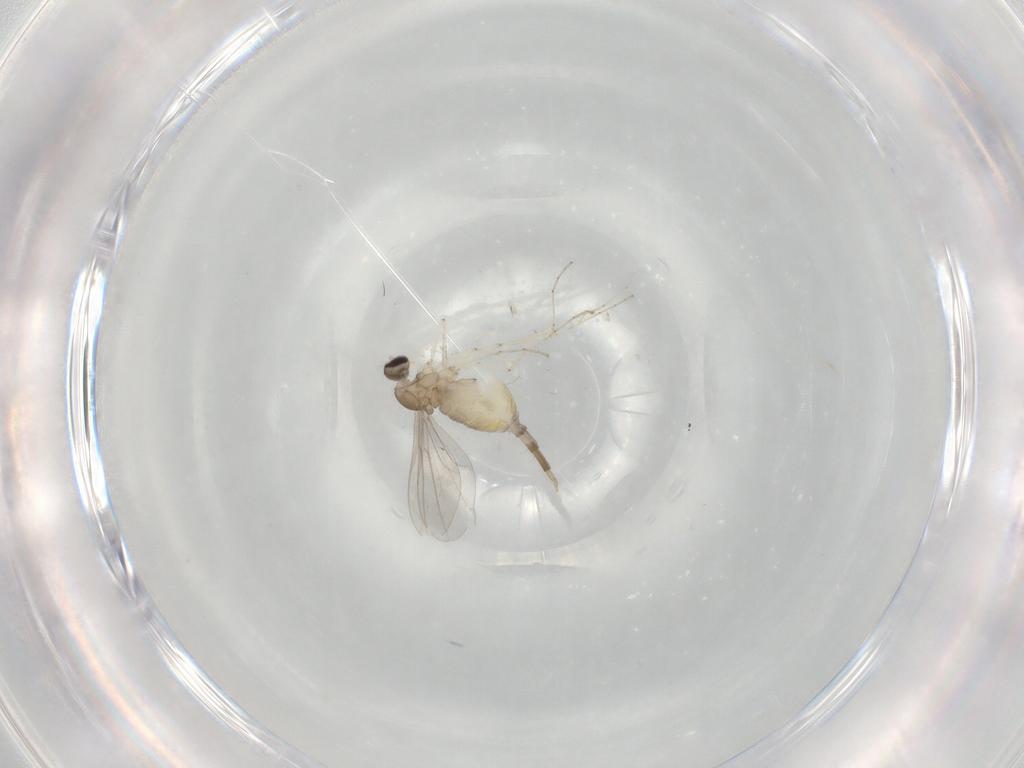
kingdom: Animalia
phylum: Arthropoda
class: Insecta
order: Diptera
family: Cecidomyiidae
